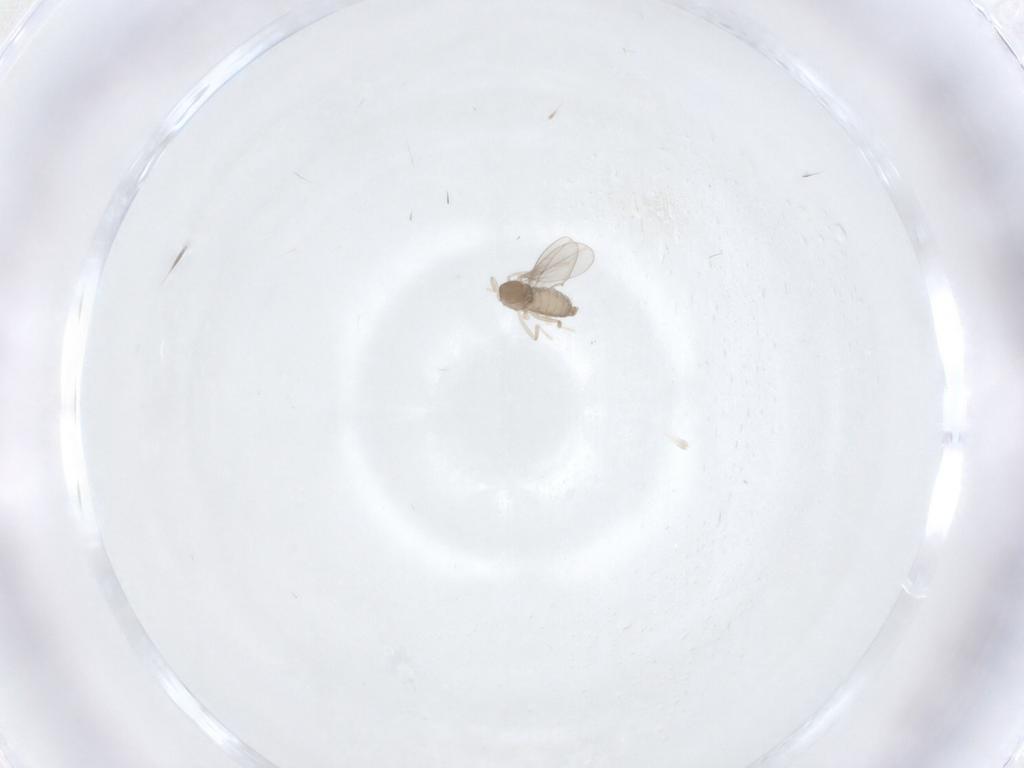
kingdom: Animalia
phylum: Arthropoda
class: Insecta
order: Diptera
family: Cecidomyiidae
